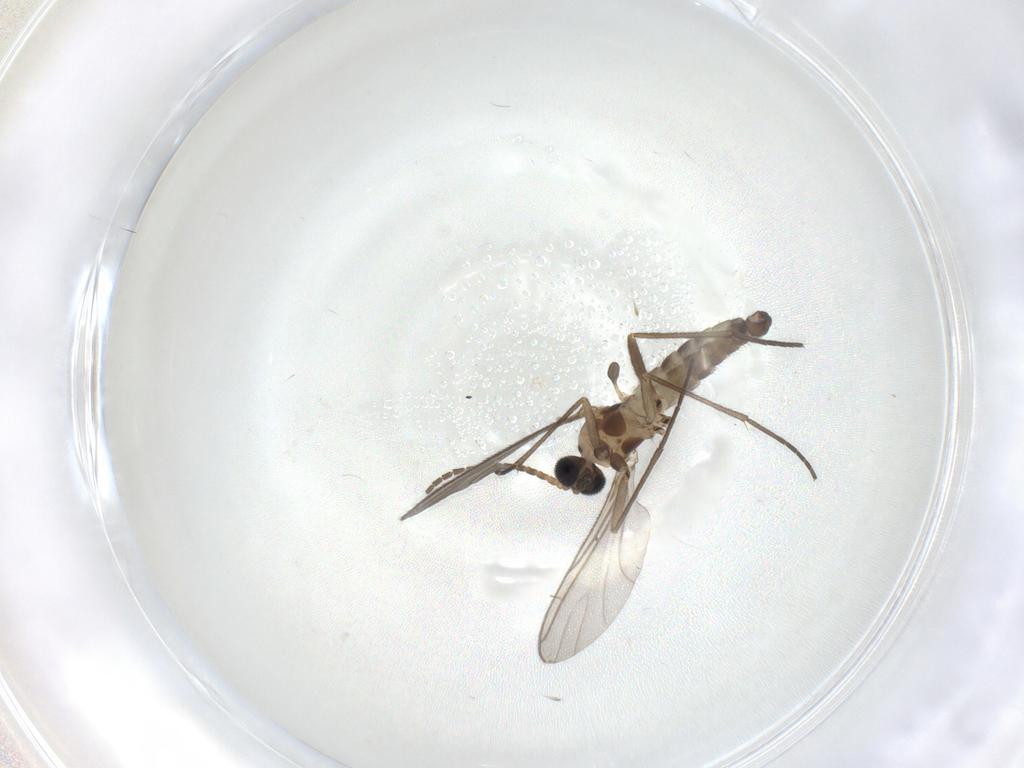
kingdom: Animalia
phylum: Arthropoda
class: Insecta
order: Diptera
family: Sciaridae
